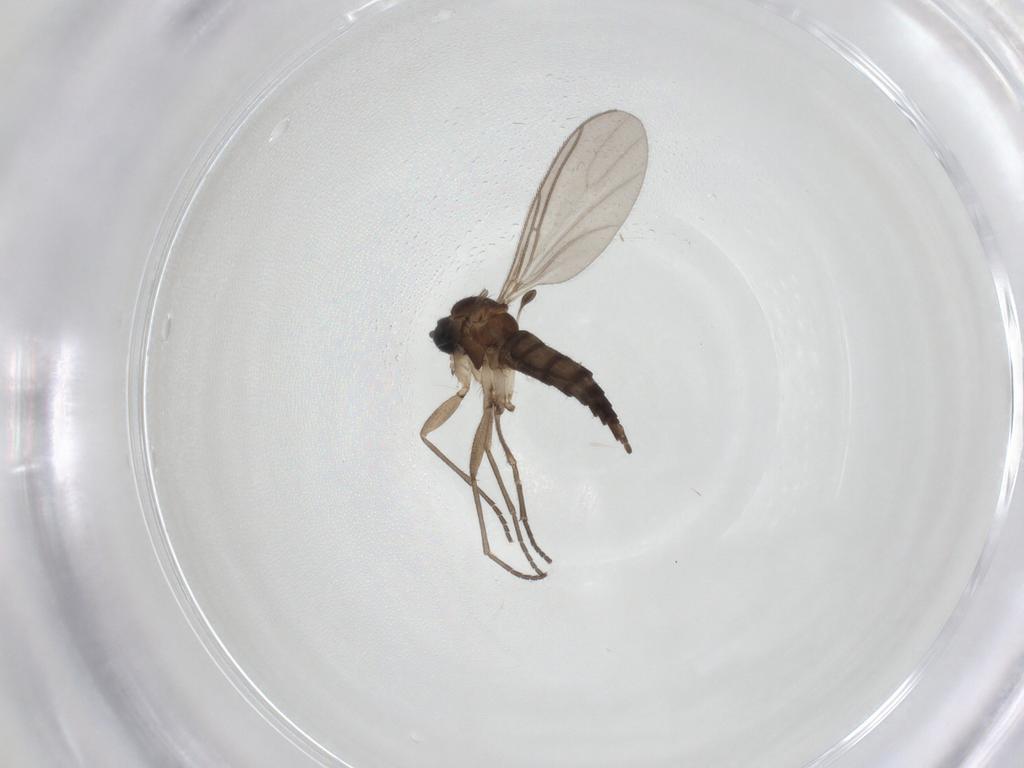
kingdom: Animalia
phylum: Arthropoda
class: Insecta
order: Diptera
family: Sciaridae
